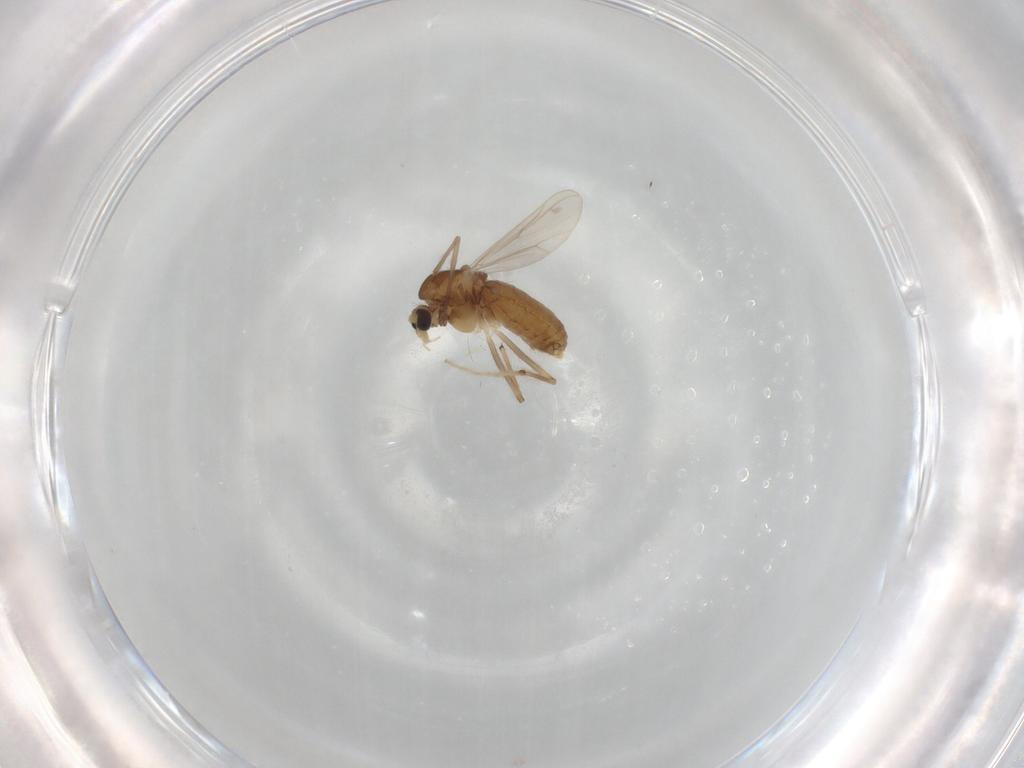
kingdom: Animalia
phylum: Arthropoda
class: Insecta
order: Diptera
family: Chironomidae
